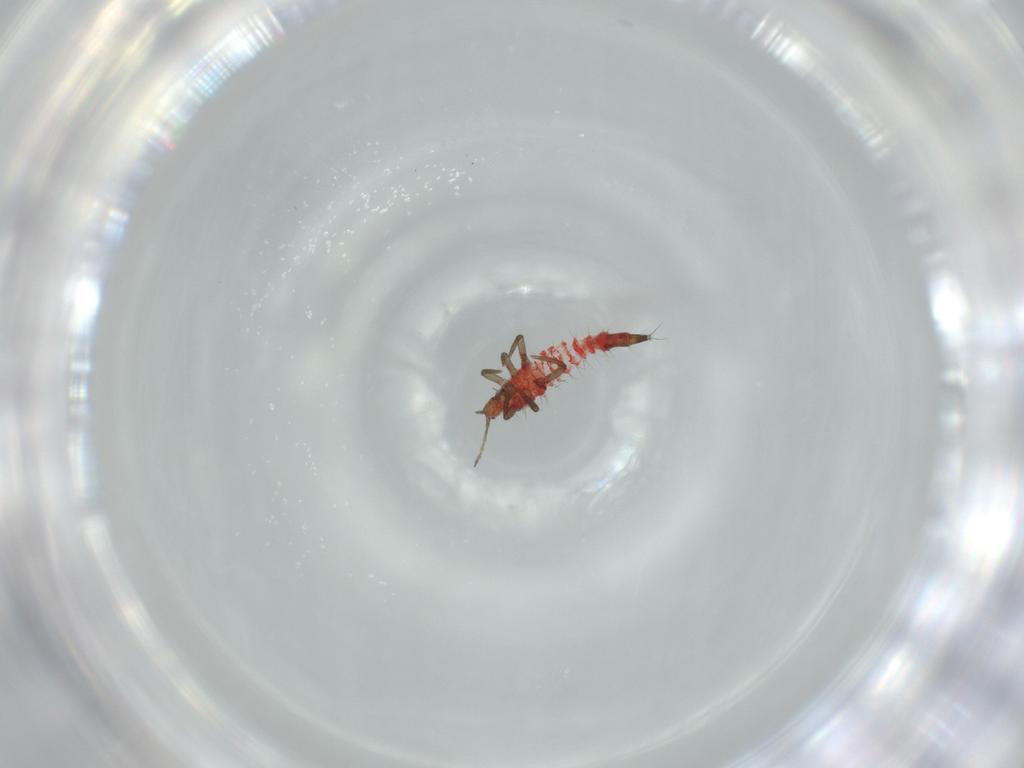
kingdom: Animalia
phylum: Arthropoda
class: Insecta
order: Thysanoptera
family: Phlaeothripidae
